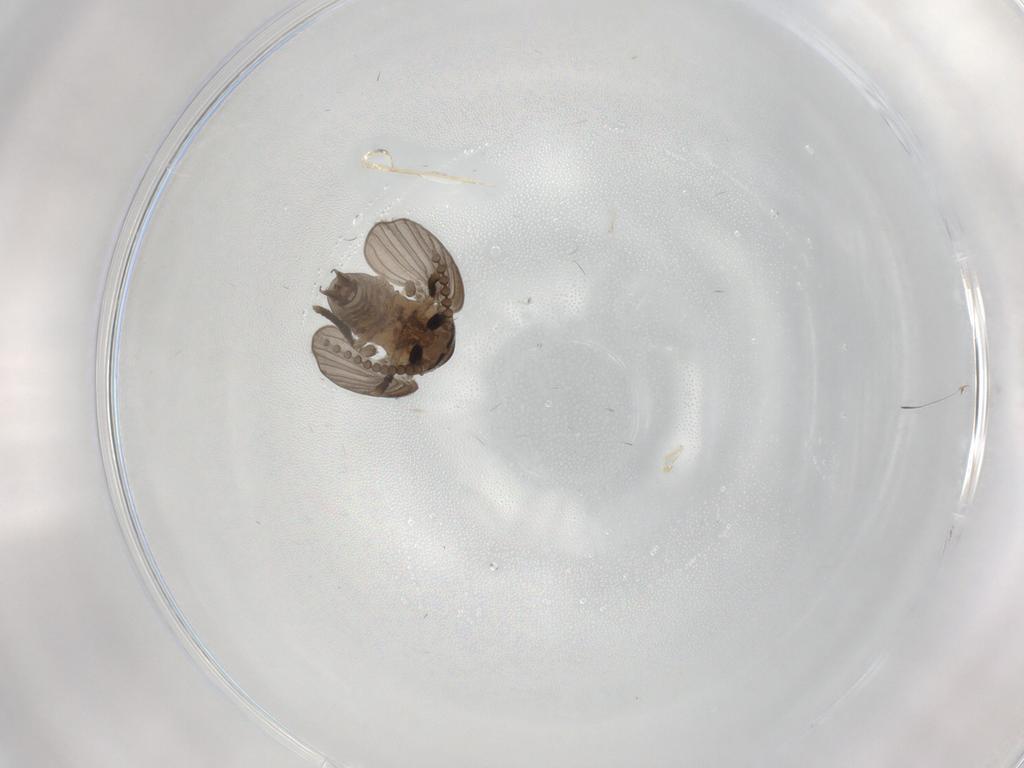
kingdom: Animalia
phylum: Arthropoda
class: Insecta
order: Diptera
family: Psychodidae
